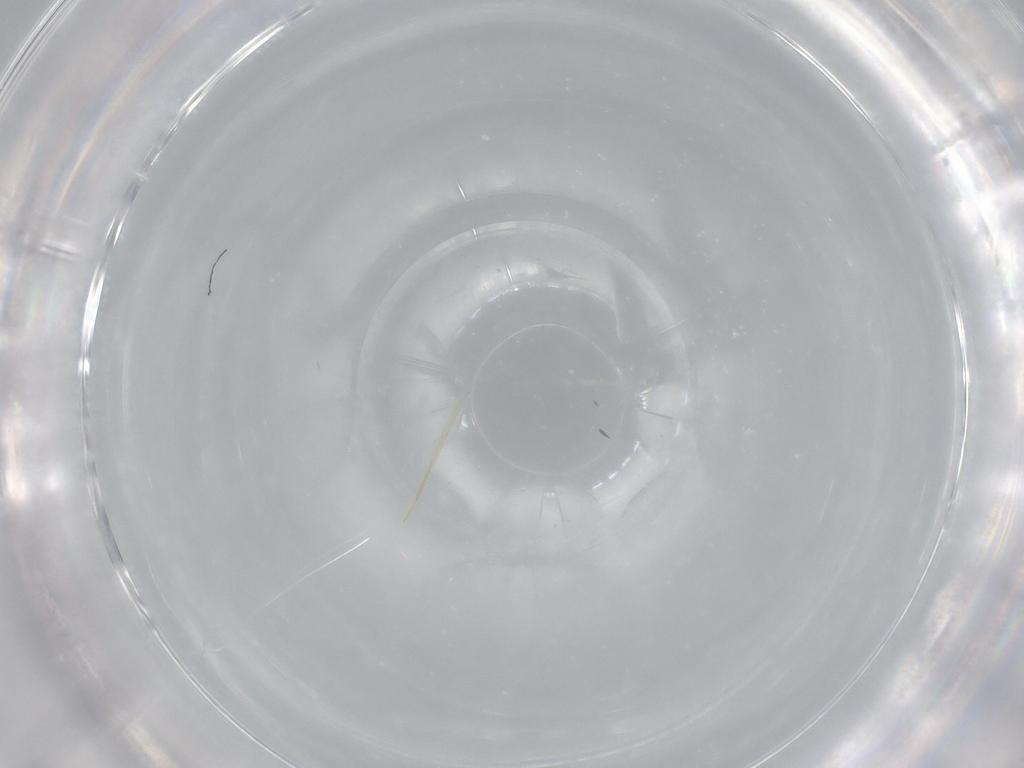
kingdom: Animalia
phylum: Arthropoda
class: Insecta
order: Diptera
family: Cecidomyiidae
